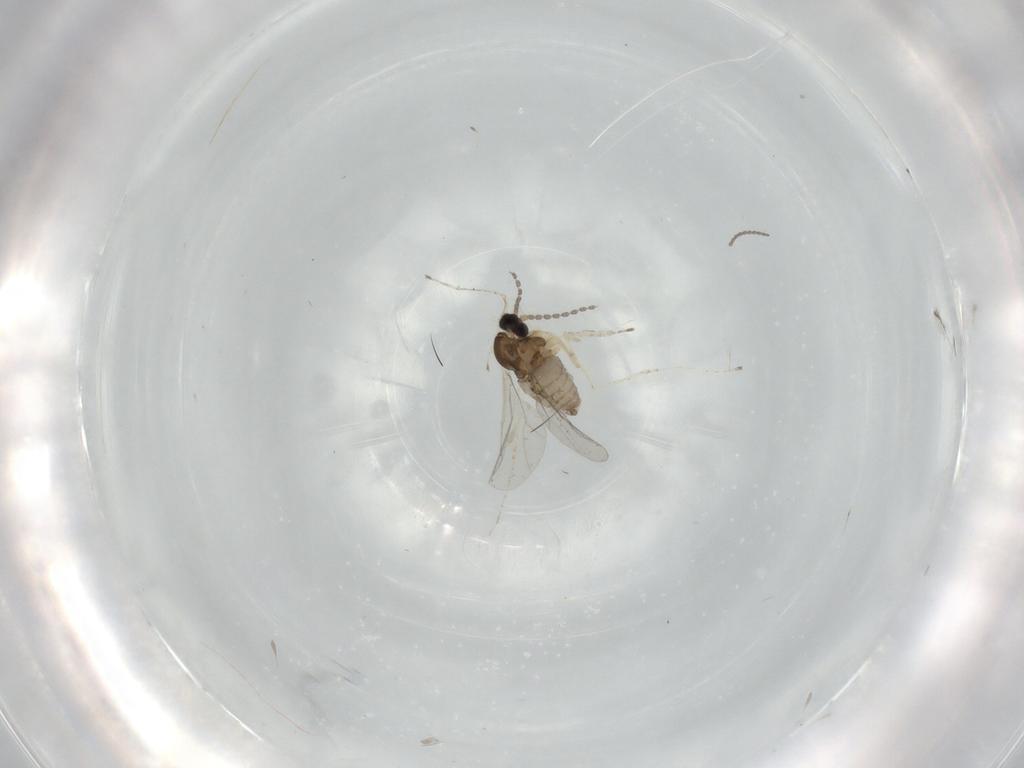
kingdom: Animalia
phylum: Arthropoda
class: Insecta
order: Diptera
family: Cecidomyiidae
